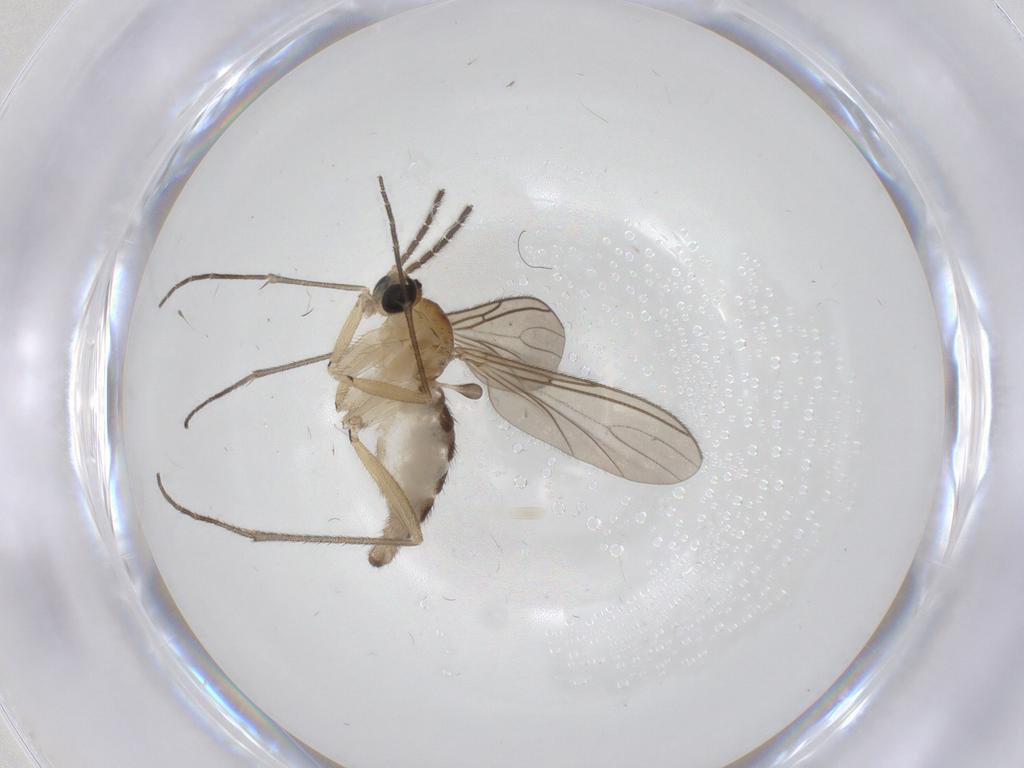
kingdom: Animalia
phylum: Arthropoda
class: Insecta
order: Diptera
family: Sciaridae
